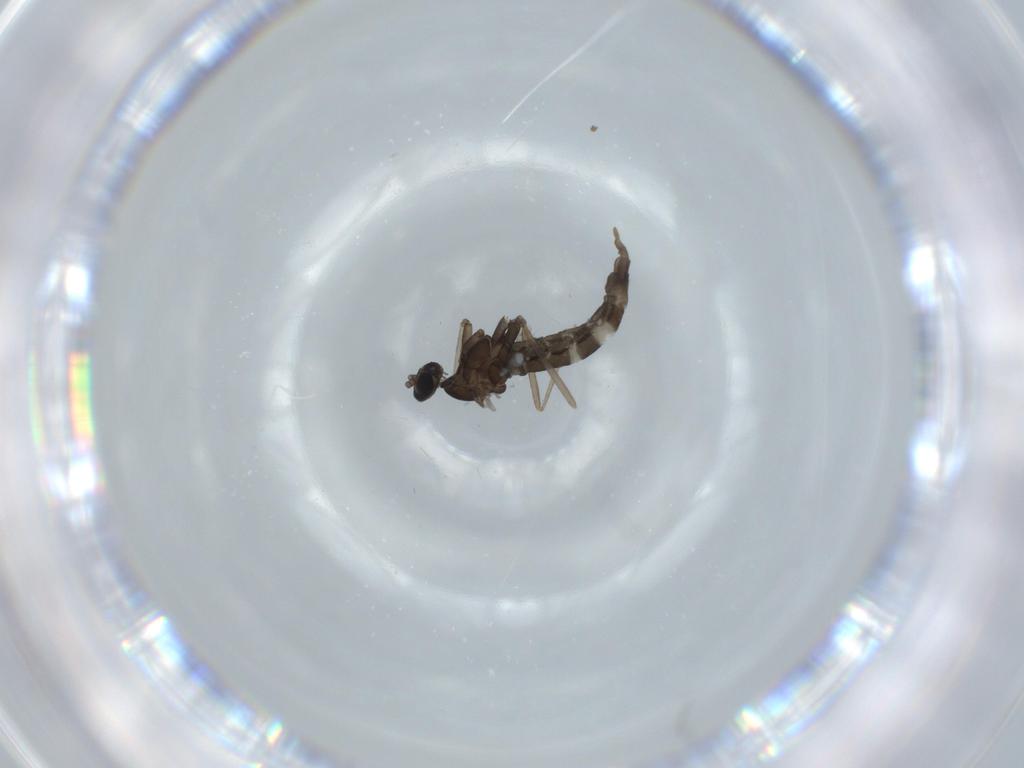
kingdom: Animalia
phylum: Arthropoda
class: Insecta
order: Diptera
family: Cecidomyiidae
